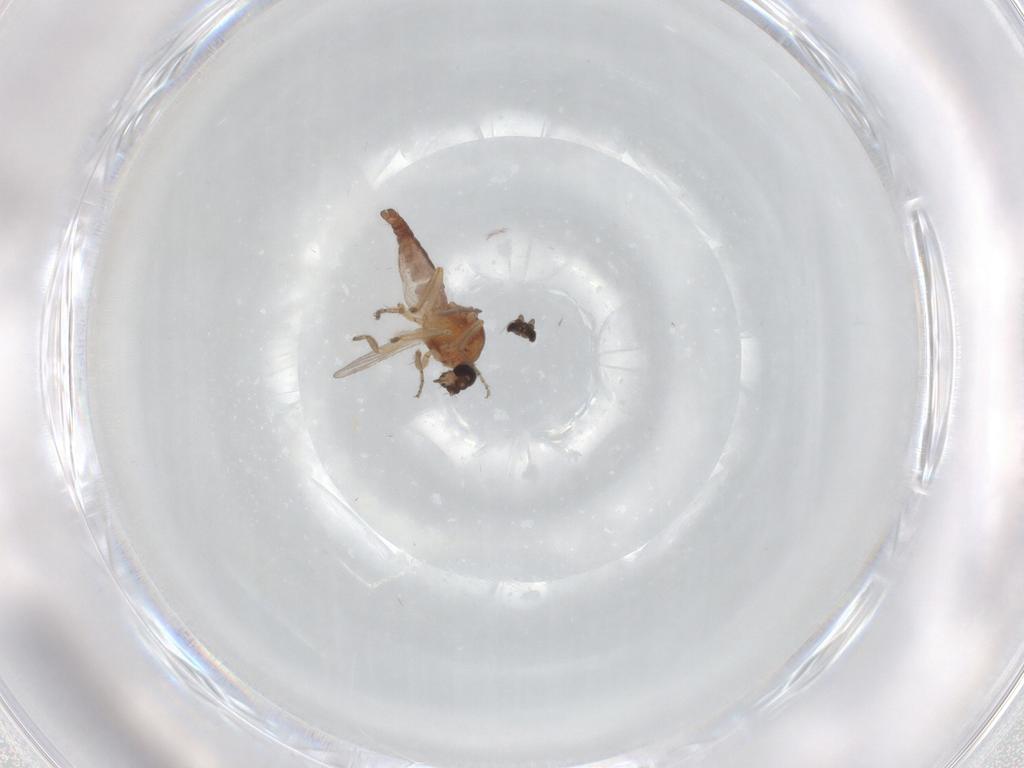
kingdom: Animalia
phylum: Arthropoda
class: Insecta
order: Diptera
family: Ceratopogonidae
